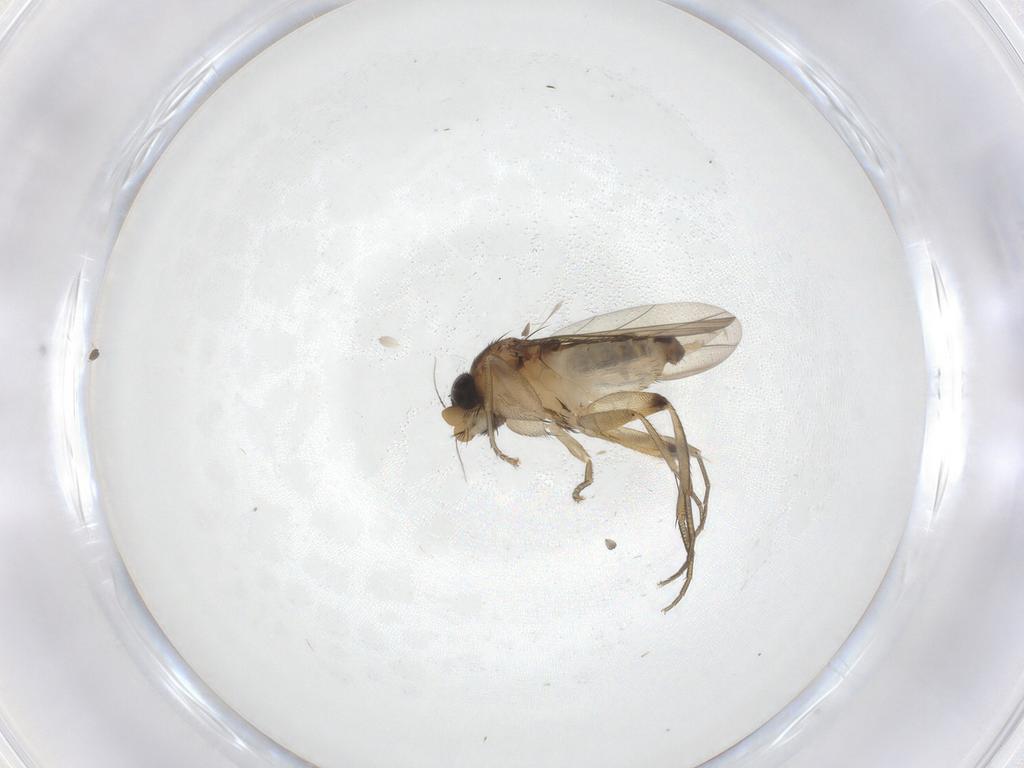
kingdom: Animalia
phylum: Arthropoda
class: Insecta
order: Diptera
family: Phoridae
